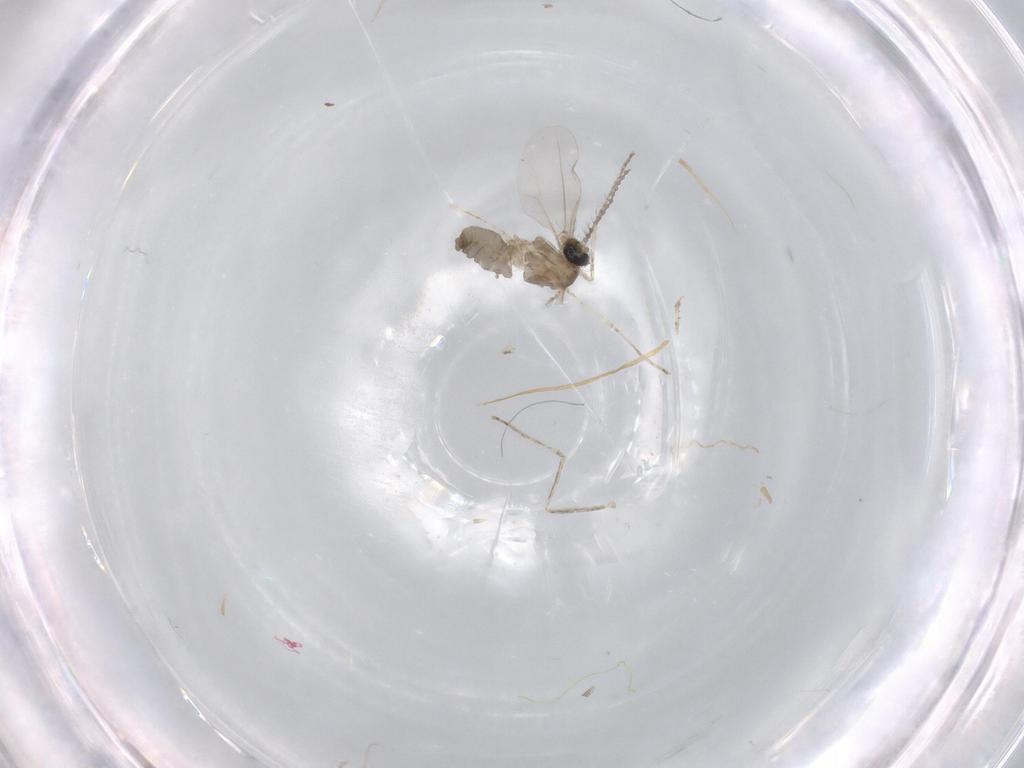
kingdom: Animalia
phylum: Arthropoda
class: Insecta
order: Diptera
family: Cecidomyiidae
